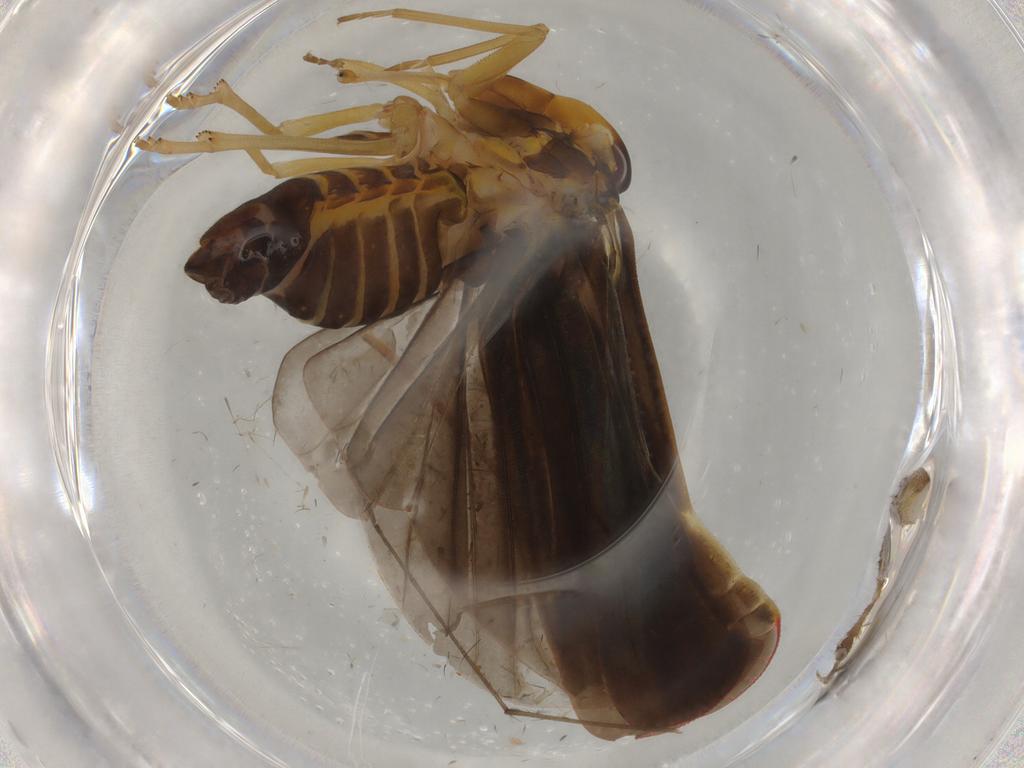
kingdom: Animalia
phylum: Arthropoda
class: Insecta
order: Hemiptera
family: Derbidae
